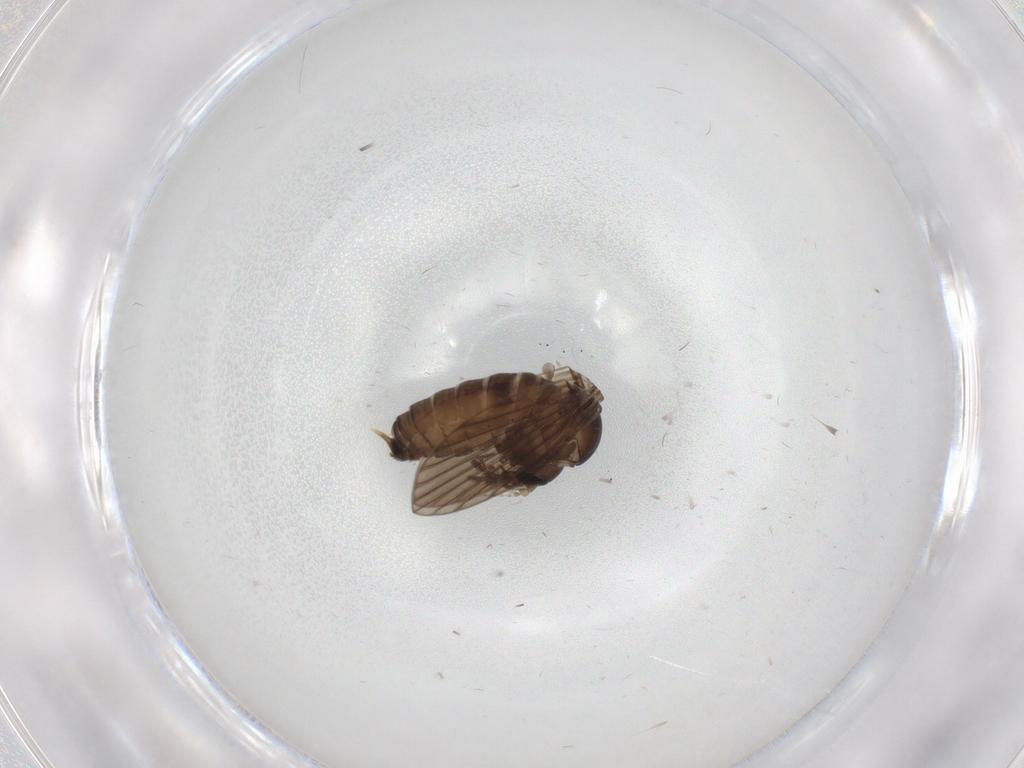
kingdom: Animalia
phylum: Arthropoda
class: Insecta
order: Diptera
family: Psychodidae
